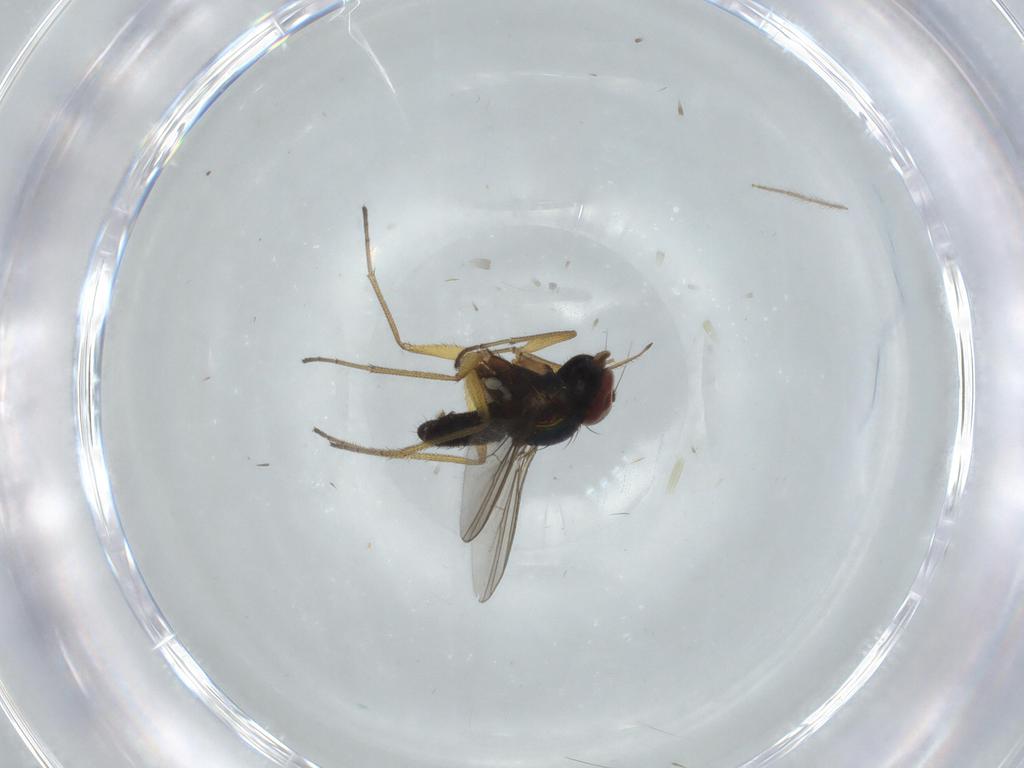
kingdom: Animalia
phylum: Arthropoda
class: Insecta
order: Diptera
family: Dolichopodidae
